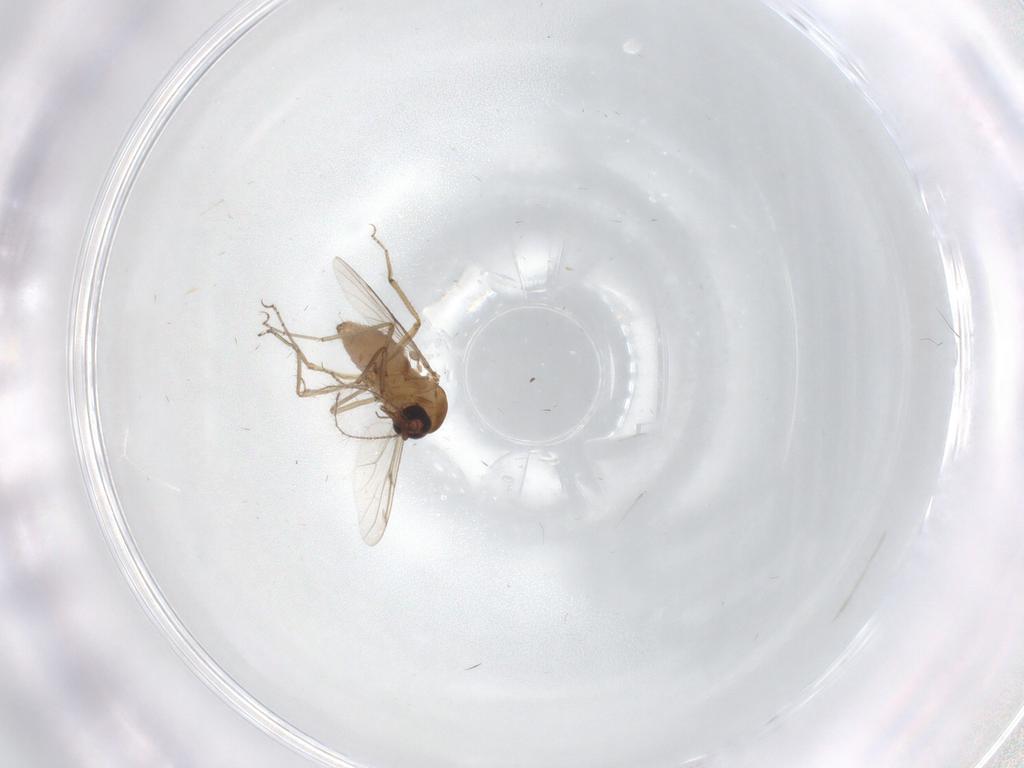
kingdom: Animalia
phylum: Arthropoda
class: Insecta
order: Diptera
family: Ceratopogonidae
